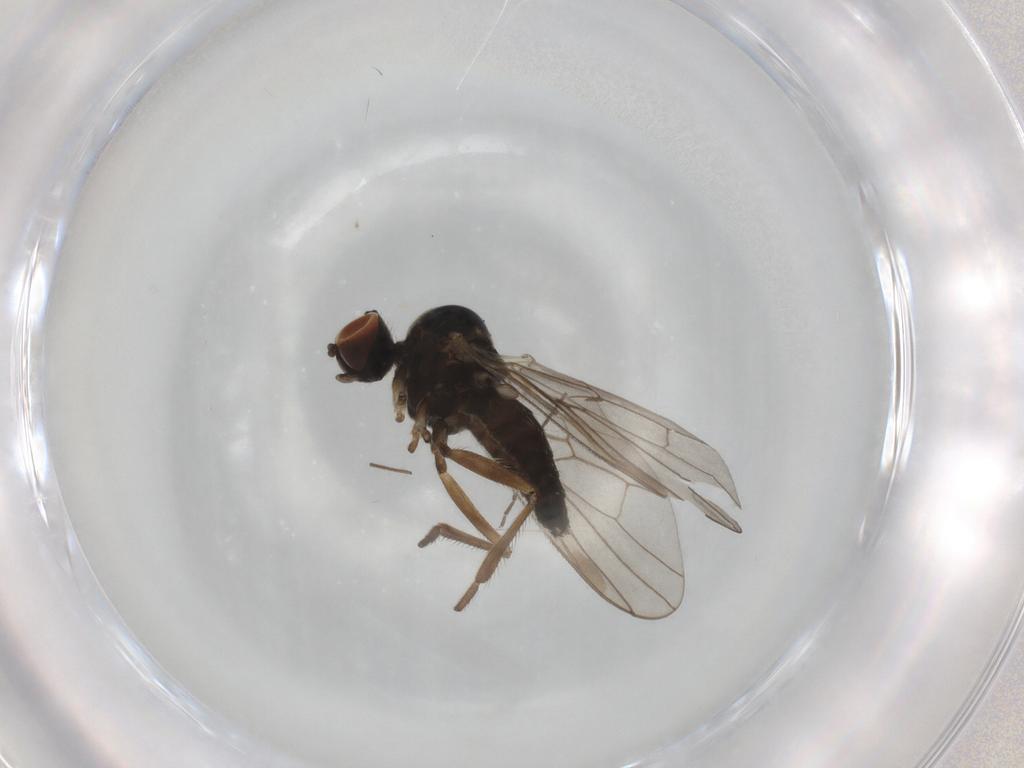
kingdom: Animalia
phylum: Arthropoda
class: Insecta
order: Diptera
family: Hybotidae
